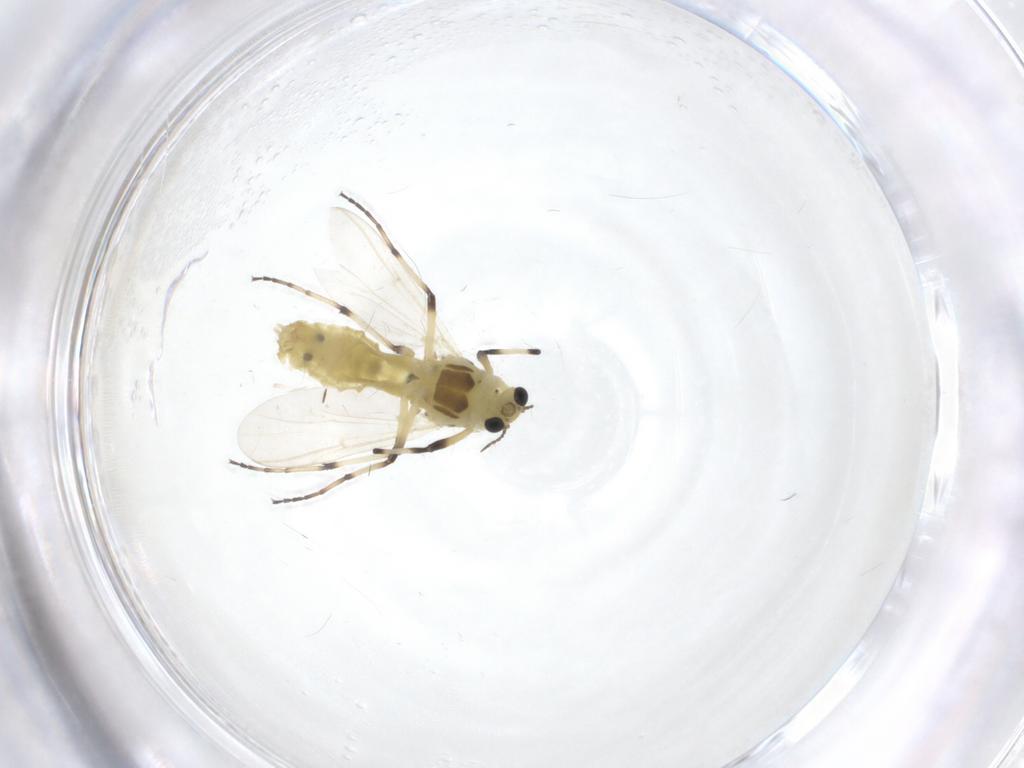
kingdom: Animalia
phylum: Arthropoda
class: Insecta
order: Diptera
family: Chironomidae
